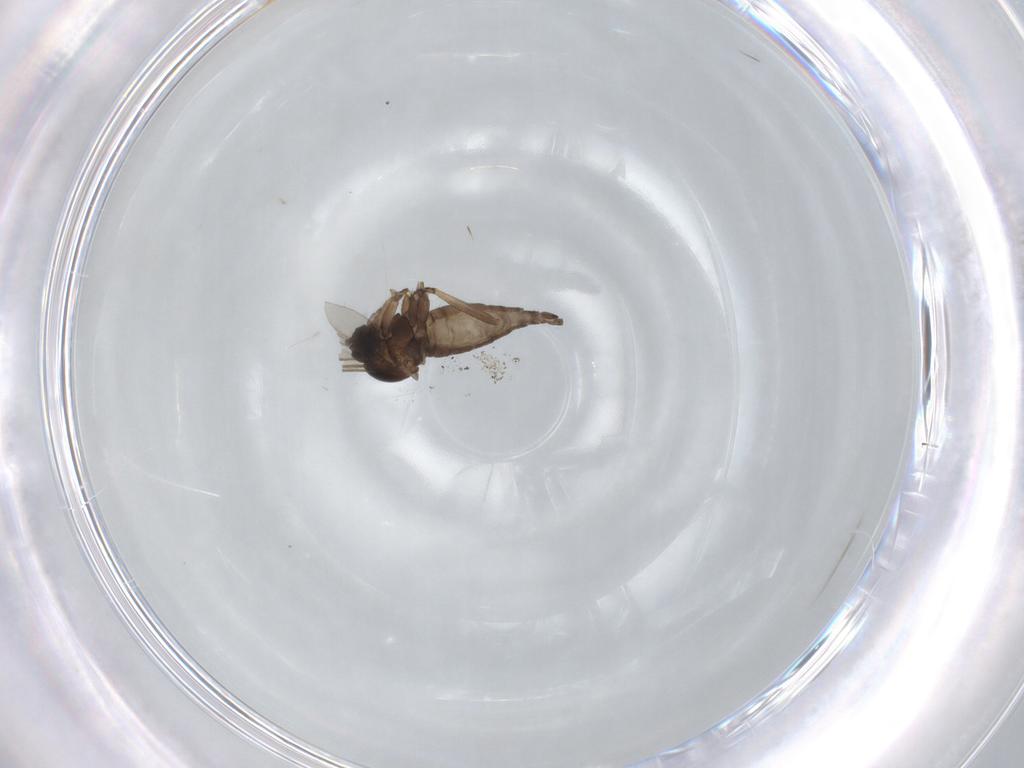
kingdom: Animalia
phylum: Arthropoda
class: Insecta
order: Diptera
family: Sciaridae
